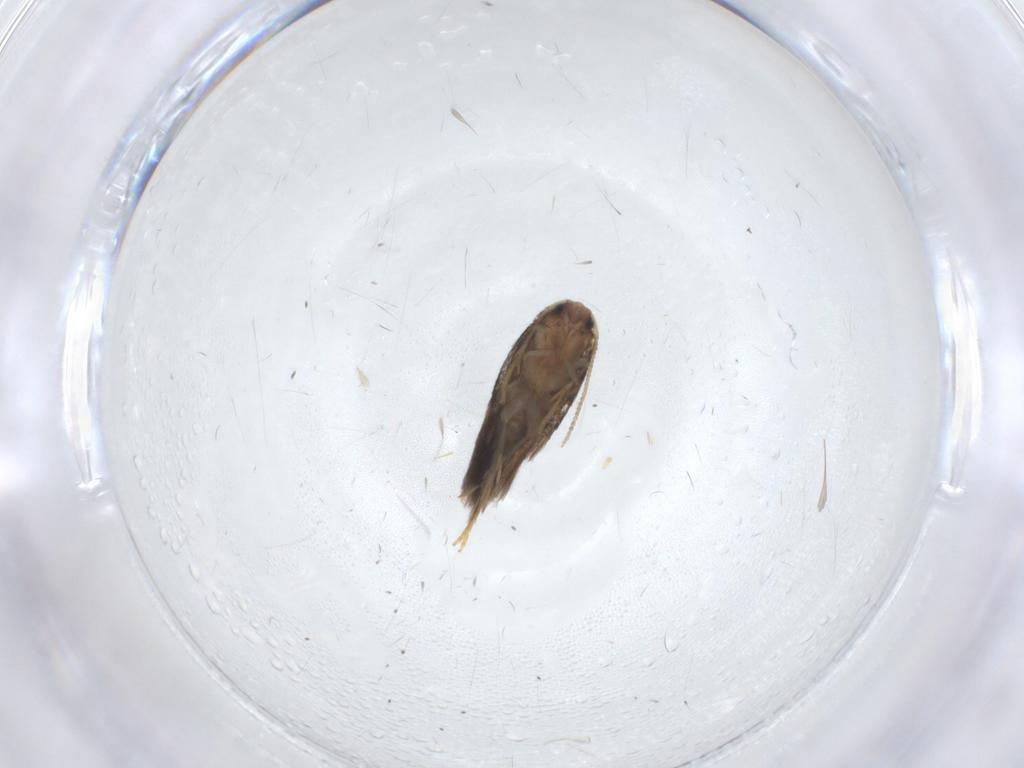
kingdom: Animalia
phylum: Arthropoda
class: Insecta
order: Lepidoptera
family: Nepticulidae
